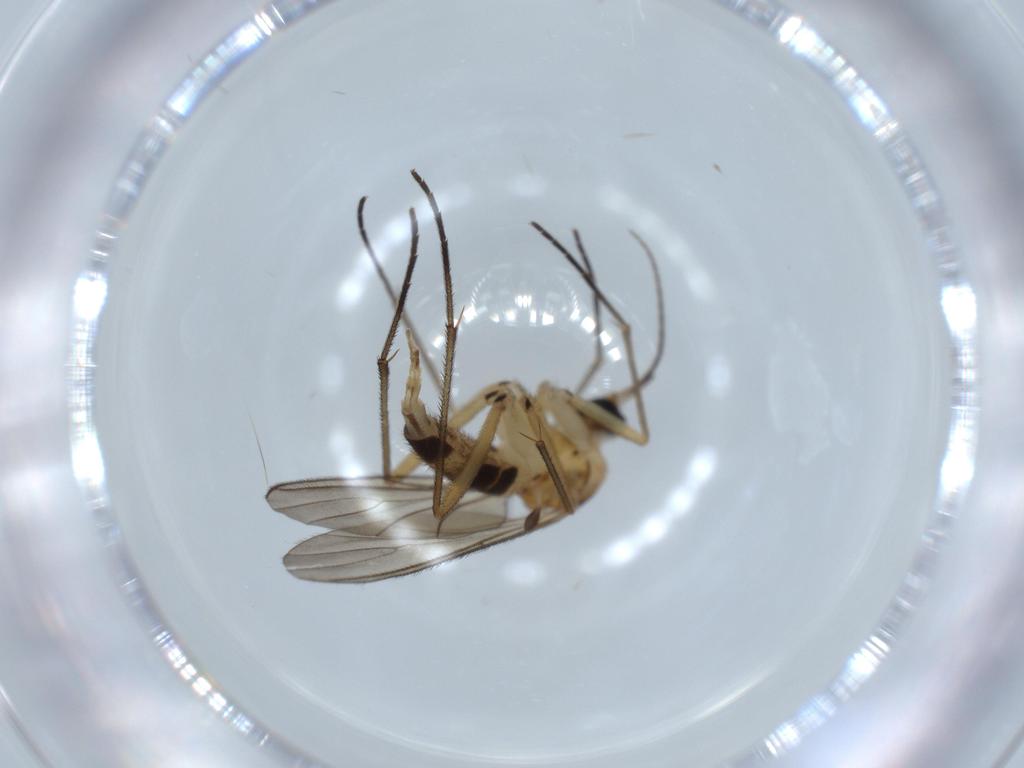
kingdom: Animalia
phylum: Arthropoda
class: Insecta
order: Diptera
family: Sciaridae
